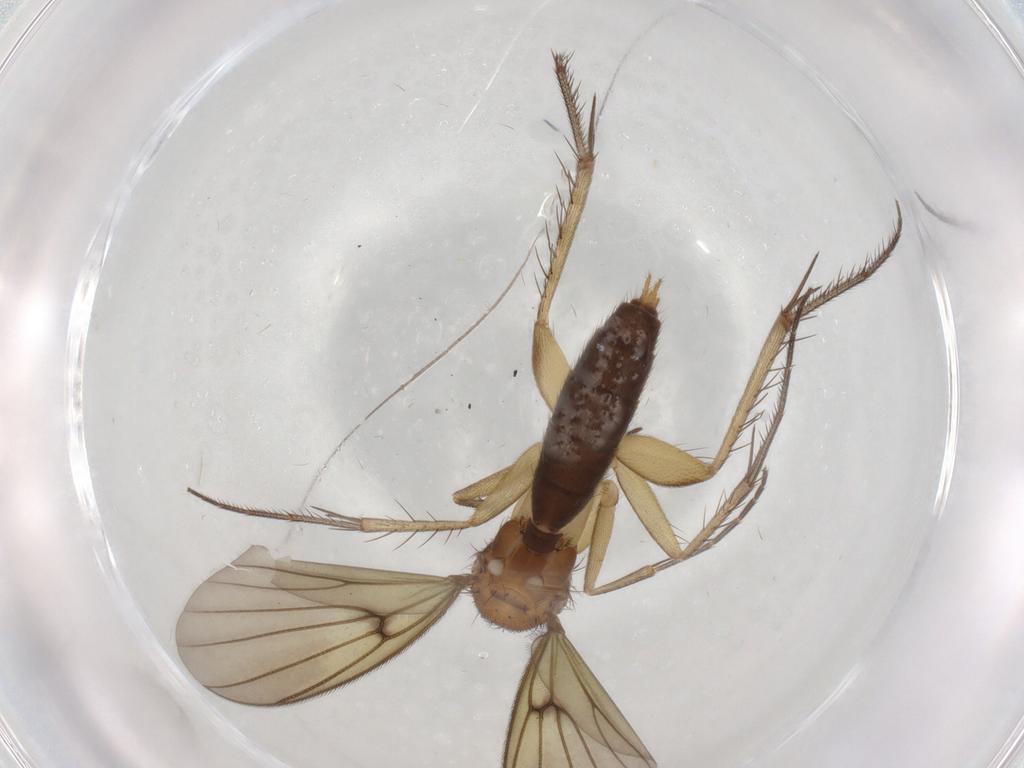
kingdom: Animalia
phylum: Arthropoda
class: Insecta
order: Diptera
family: Mycetophilidae
